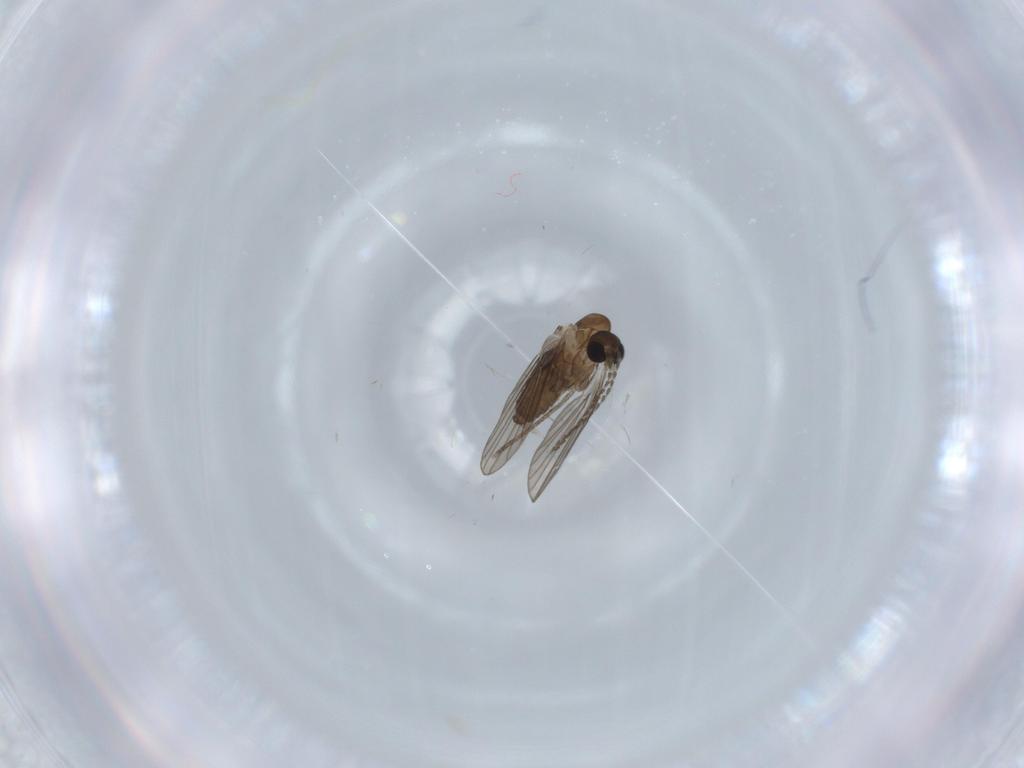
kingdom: Animalia
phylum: Arthropoda
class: Insecta
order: Diptera
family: Psychodidae
